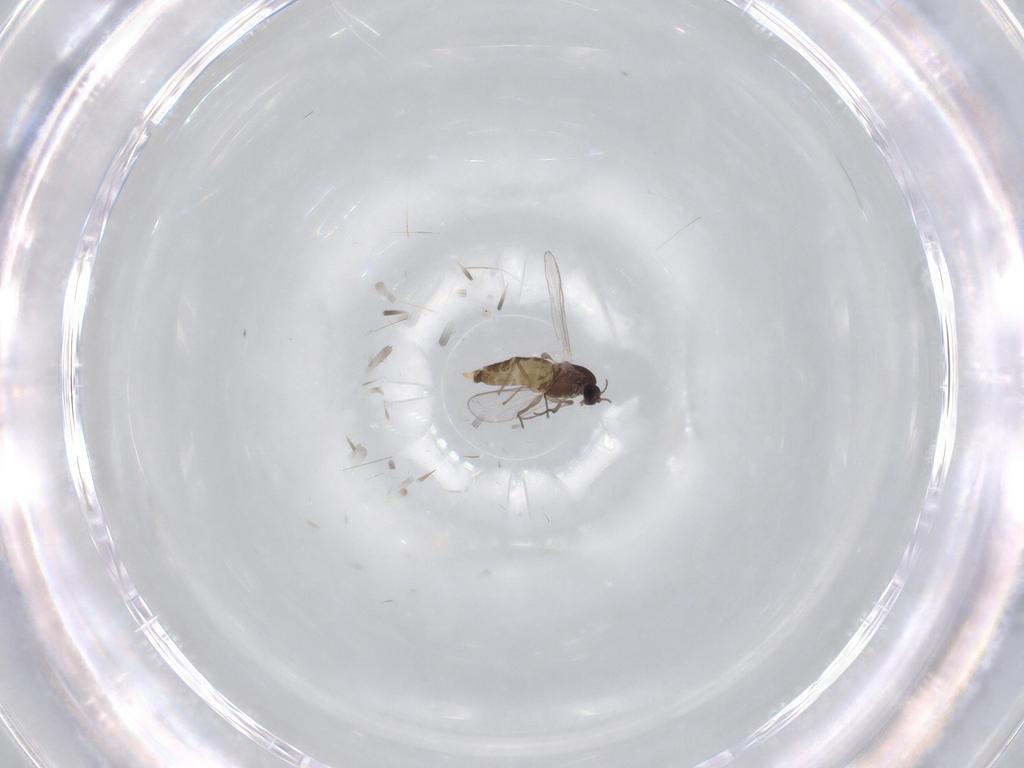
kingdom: Animalia
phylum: Arthropoda
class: Insecta
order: Diptera
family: Chironomidae
